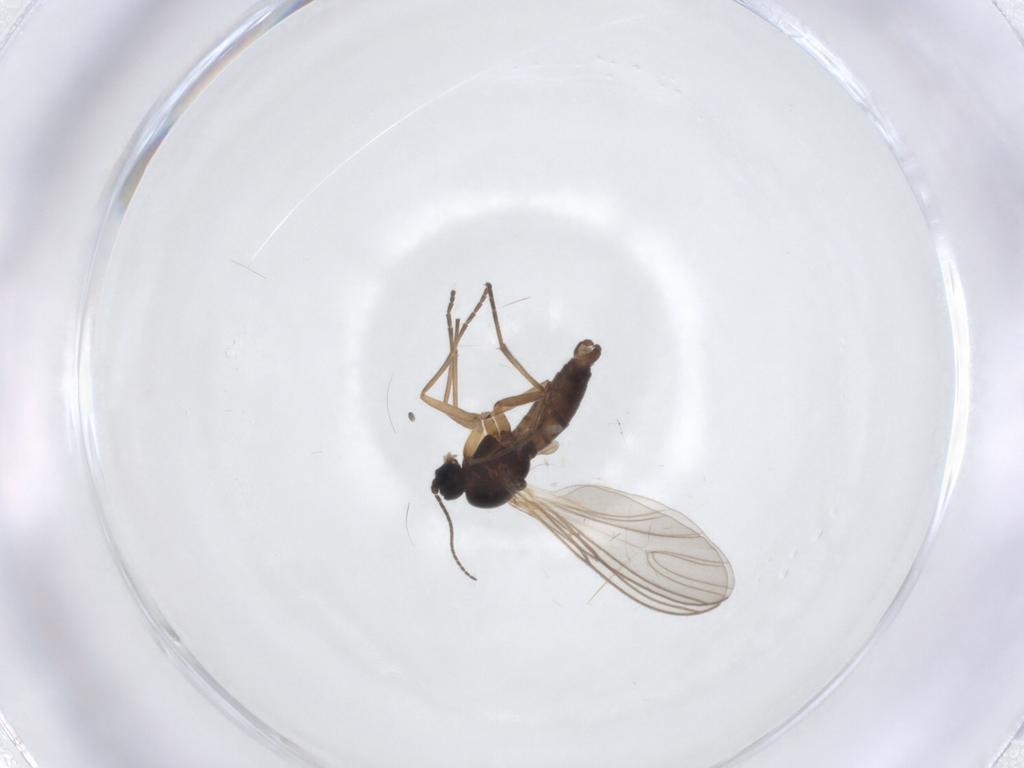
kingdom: Animalia
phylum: Arthropoda
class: Insecta
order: Diptera
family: Sciaridae
